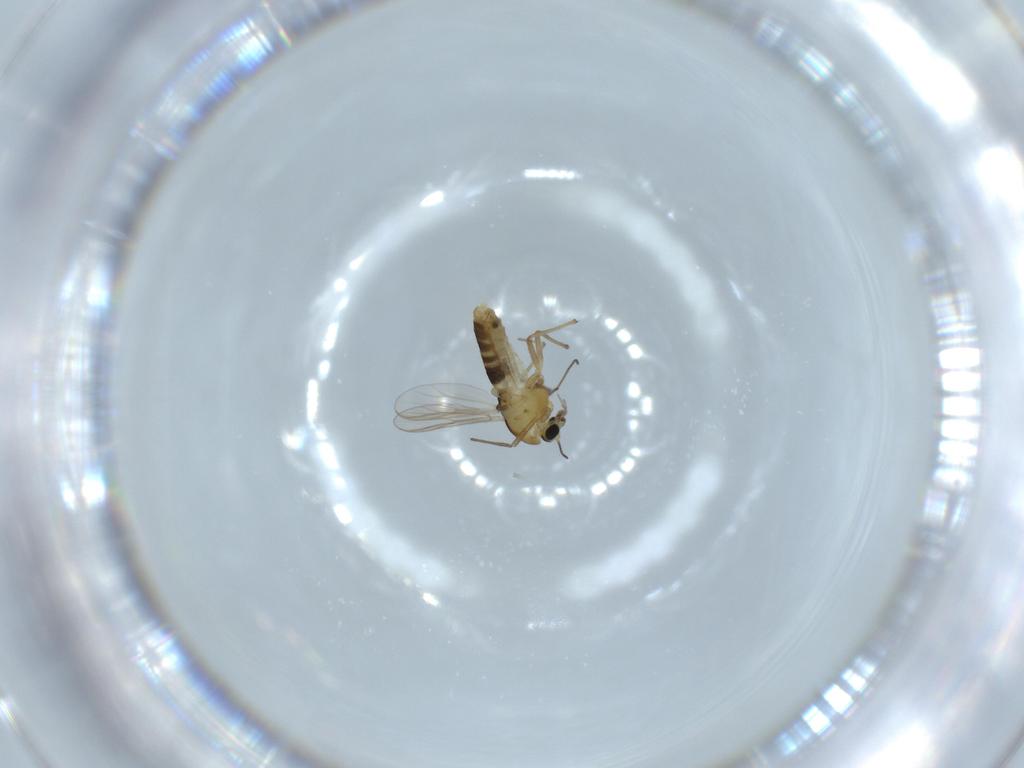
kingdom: Animalia
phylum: Arthropoda
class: Insecta
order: Diptera
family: Chironomidae
